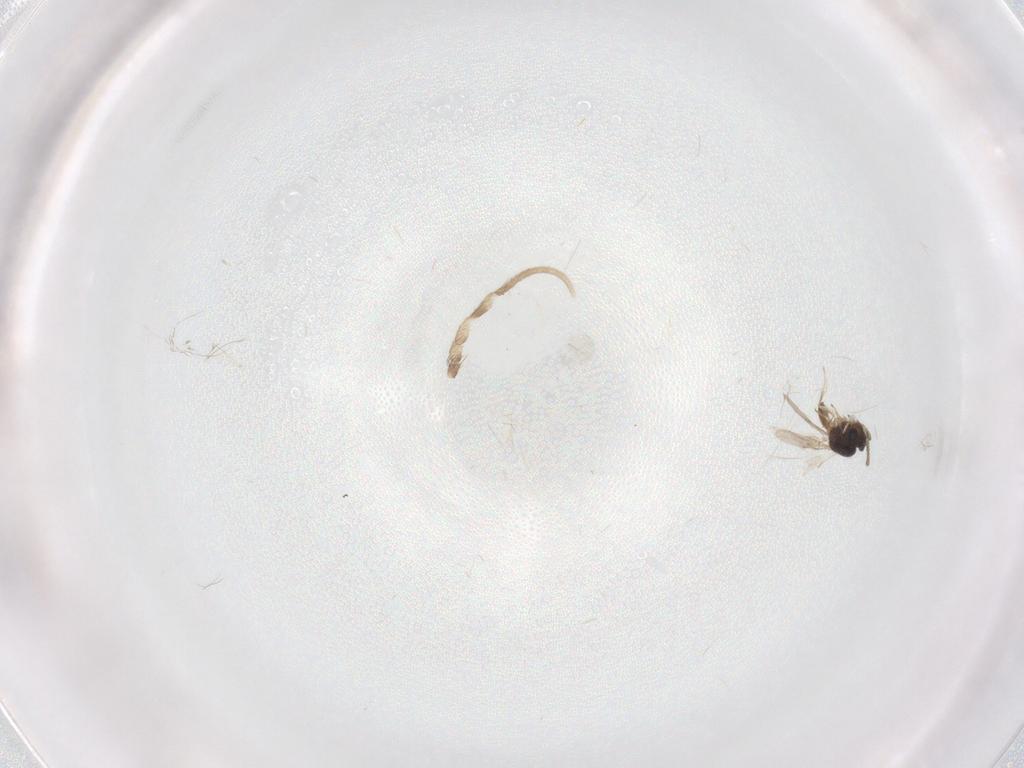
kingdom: Animalia
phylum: Arthropoda
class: Insecta
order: Hymenoptera
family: Scelionidae
